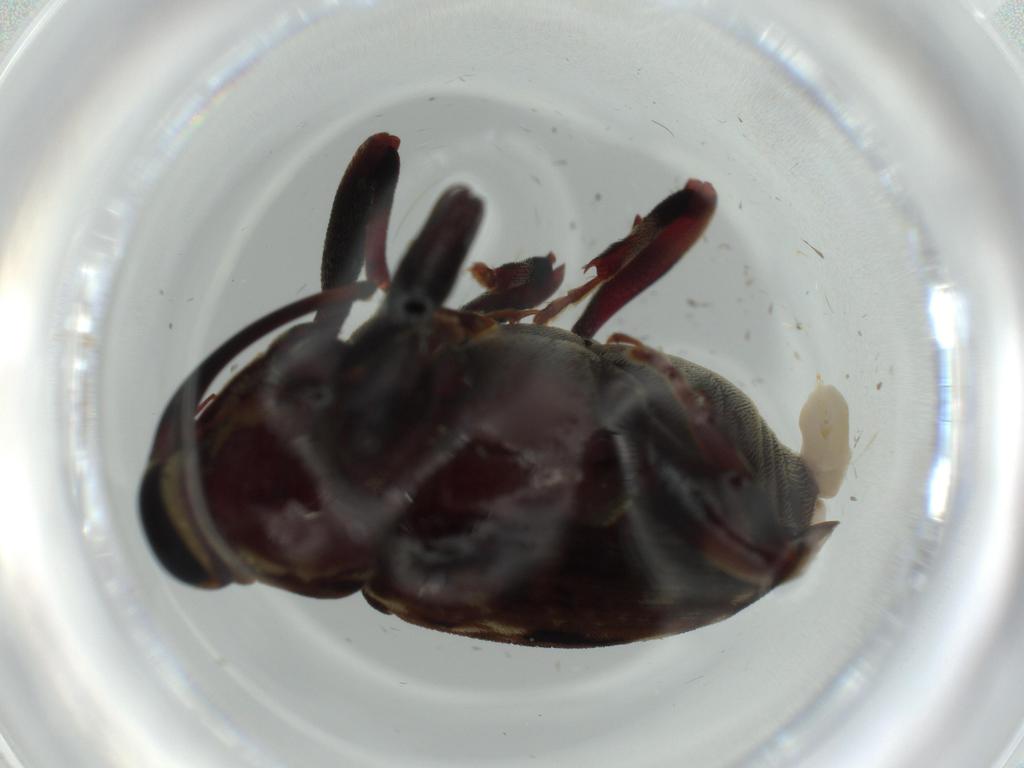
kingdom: Animalia
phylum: Arthropoda
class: Insecta
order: Coleoptera
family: Curculionidae
